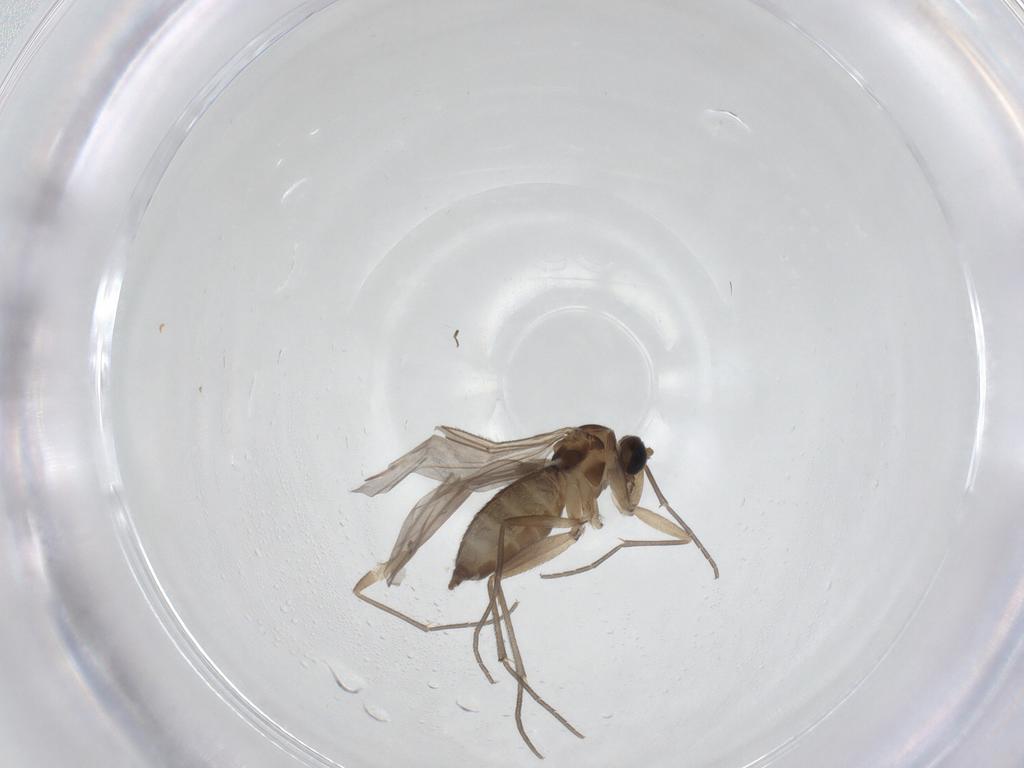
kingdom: Animalia
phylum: Arthropoda
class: Insecta
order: Diptera
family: Sciaridae
